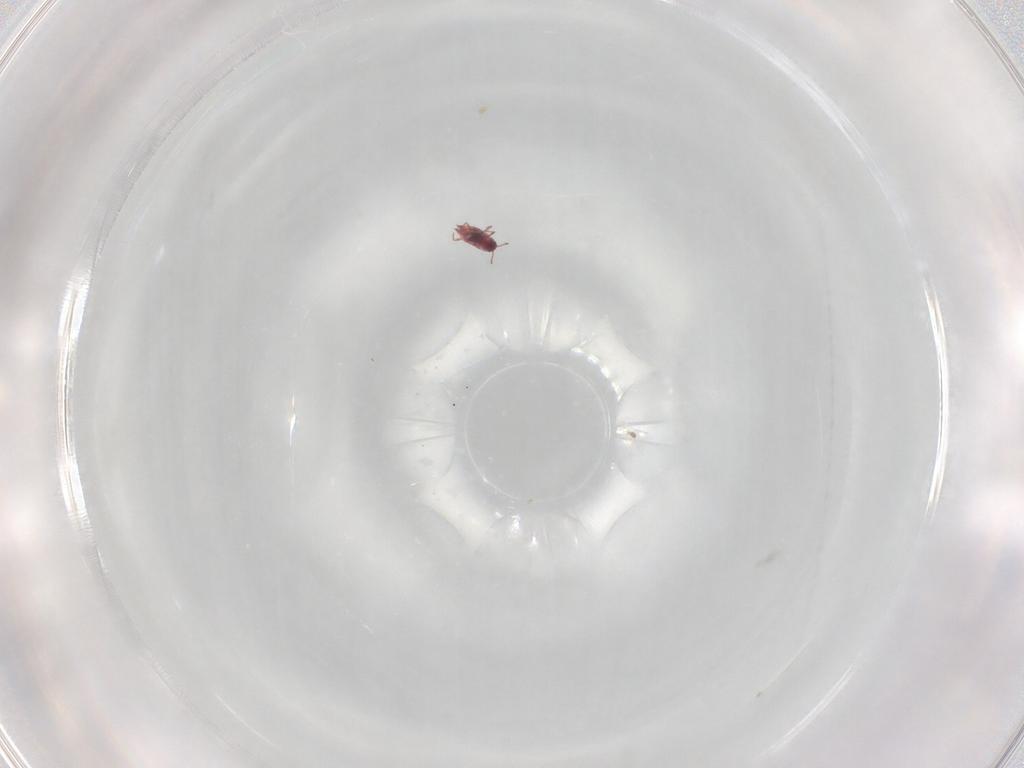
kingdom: Animalia
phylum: Arthropoda
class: Insecta
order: Hemiptera
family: Coccoidea_incertae_sedis
